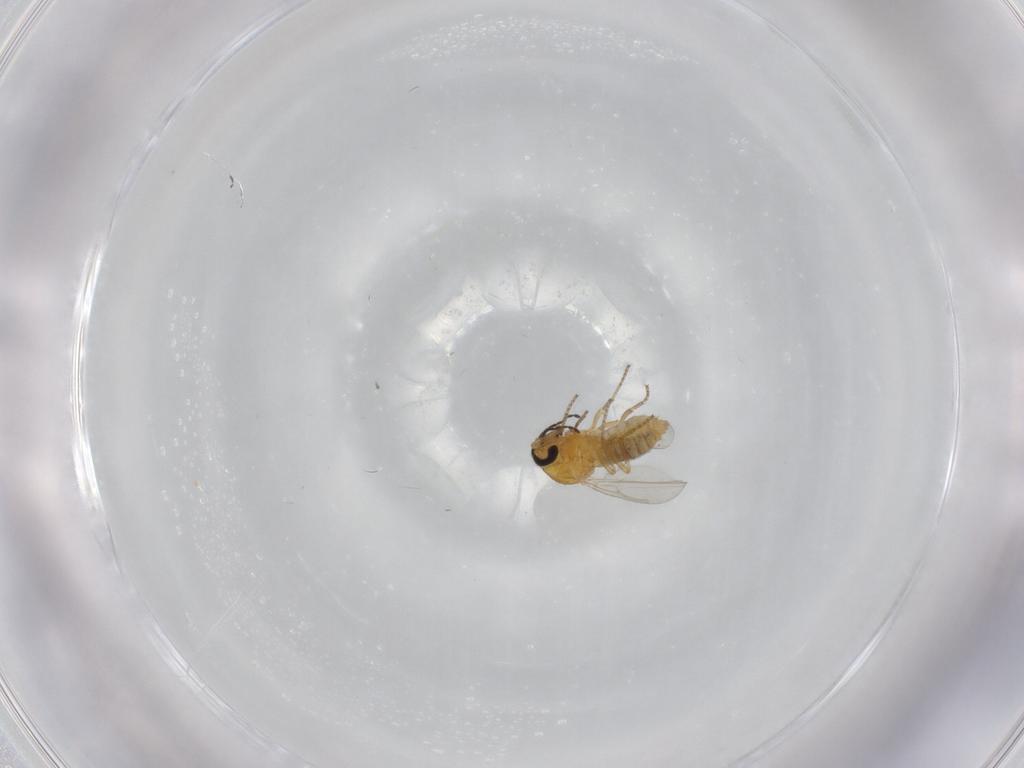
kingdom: Animalia
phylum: Arthropoda
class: Insecta
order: Diptera
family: Ceratopogonidae
